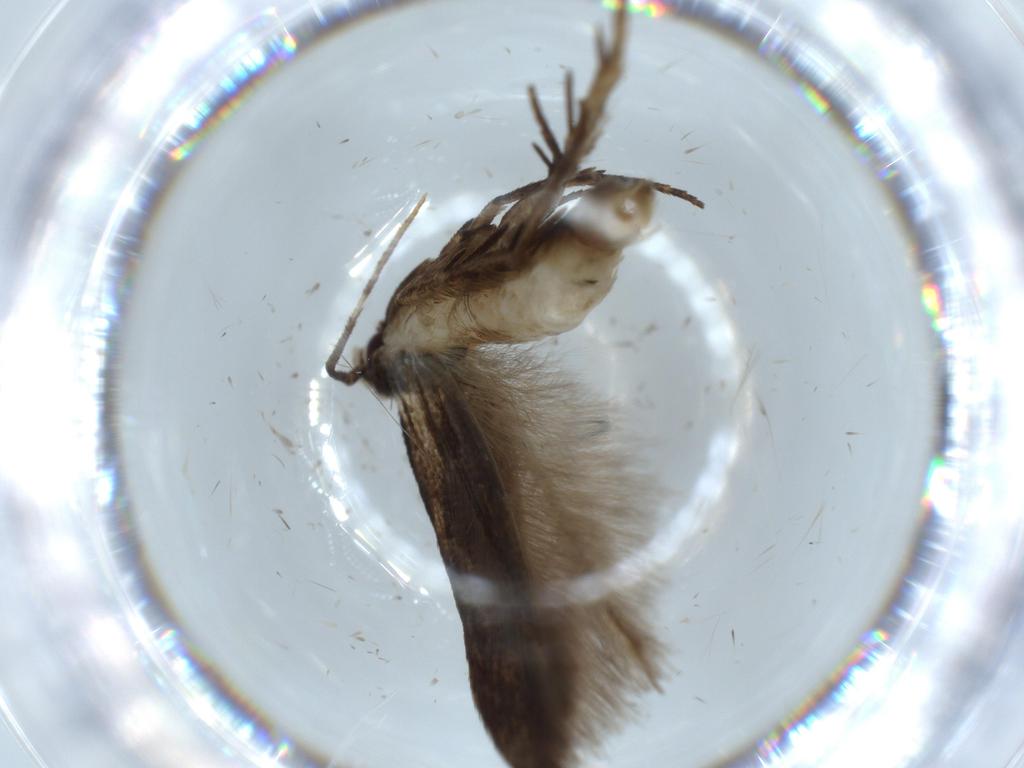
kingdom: Animalia
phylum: Arthropoda
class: Insecta
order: Lepidoptera
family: Cosmopterigidae
